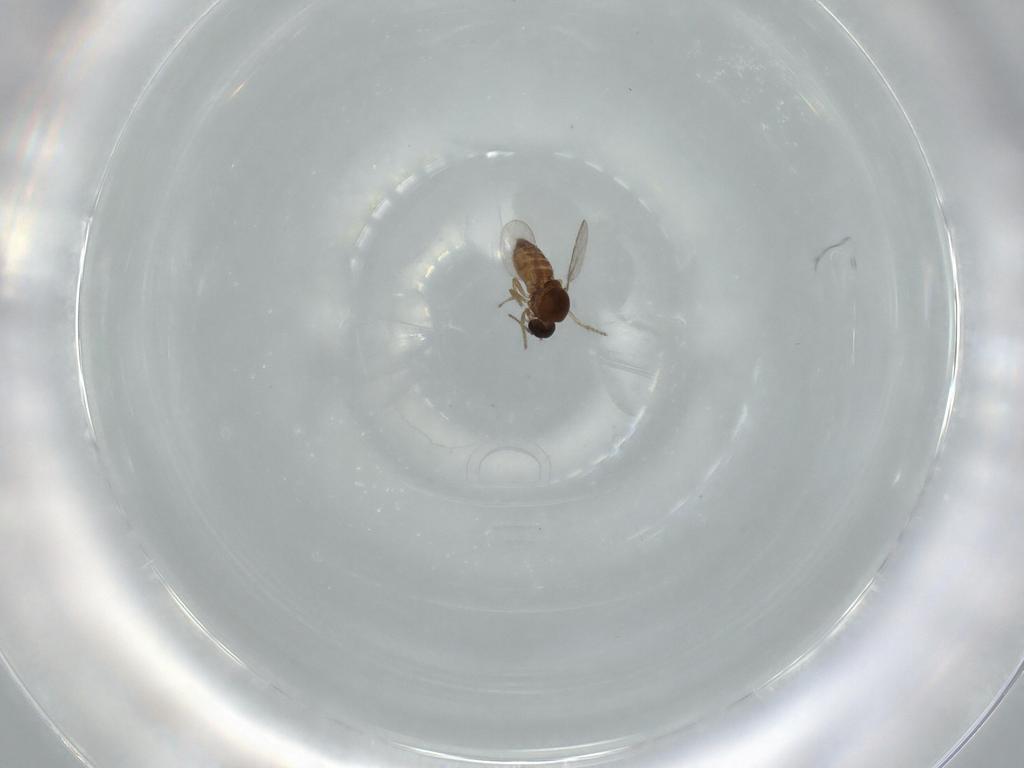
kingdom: Animalia
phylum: Arthropoda
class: Insecta
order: Diptera
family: Ceratopogonidae
